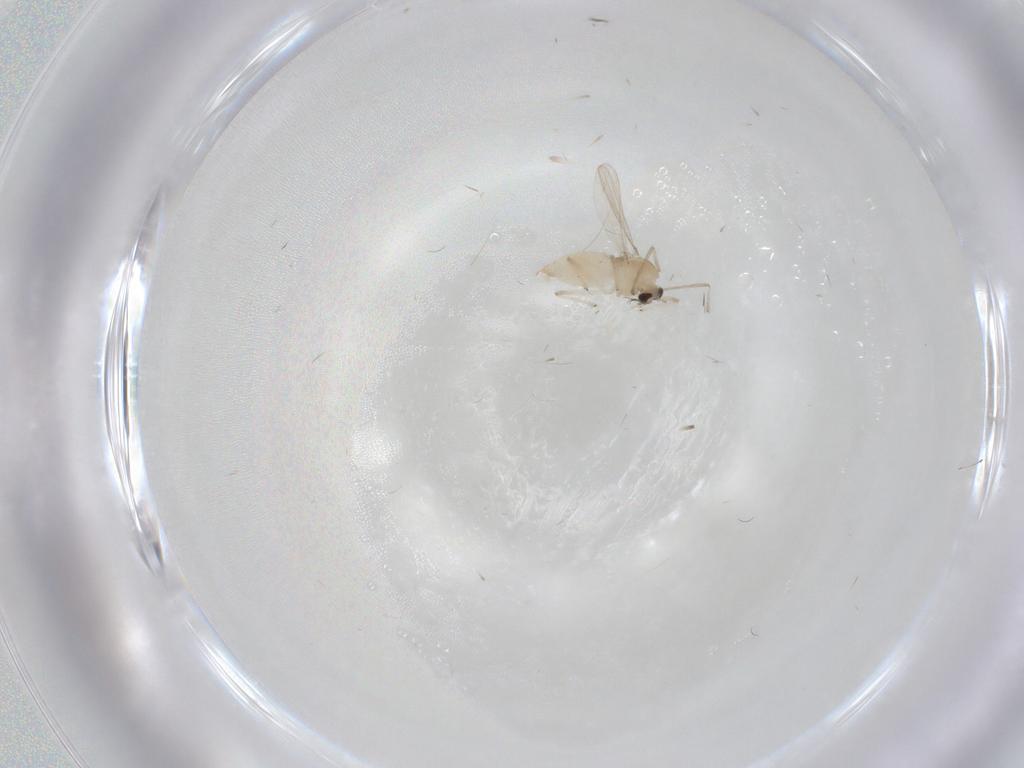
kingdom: Animalia
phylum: Arthropoda
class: Insecta
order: Diptera
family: Chironomidae
